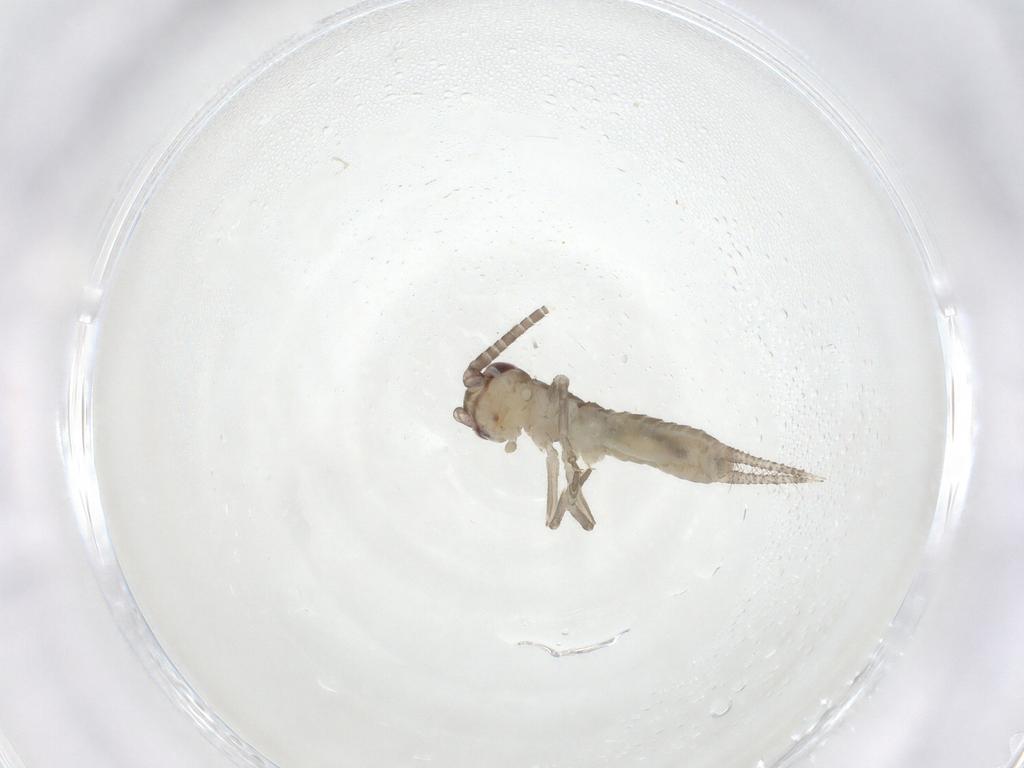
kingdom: Animalia
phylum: Arthropoda
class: Insecta
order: Orthoptera
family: Gryllidae
